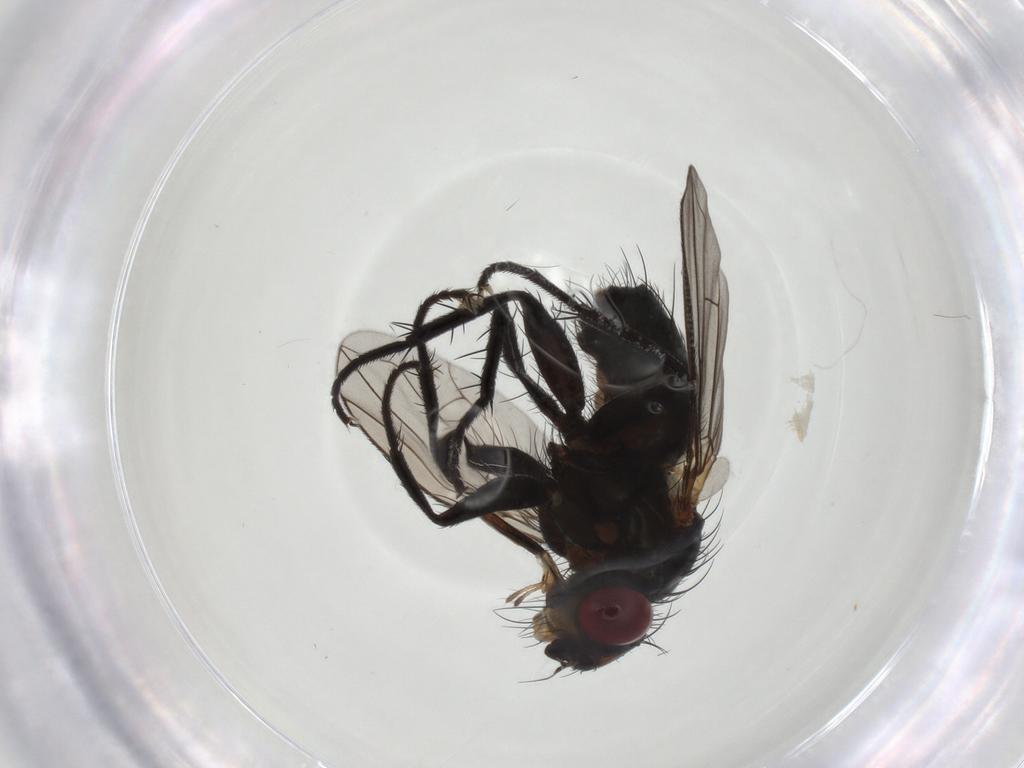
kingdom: Animalia
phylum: Arthropoda
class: Insecta
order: Diptera
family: Calliphoridae
